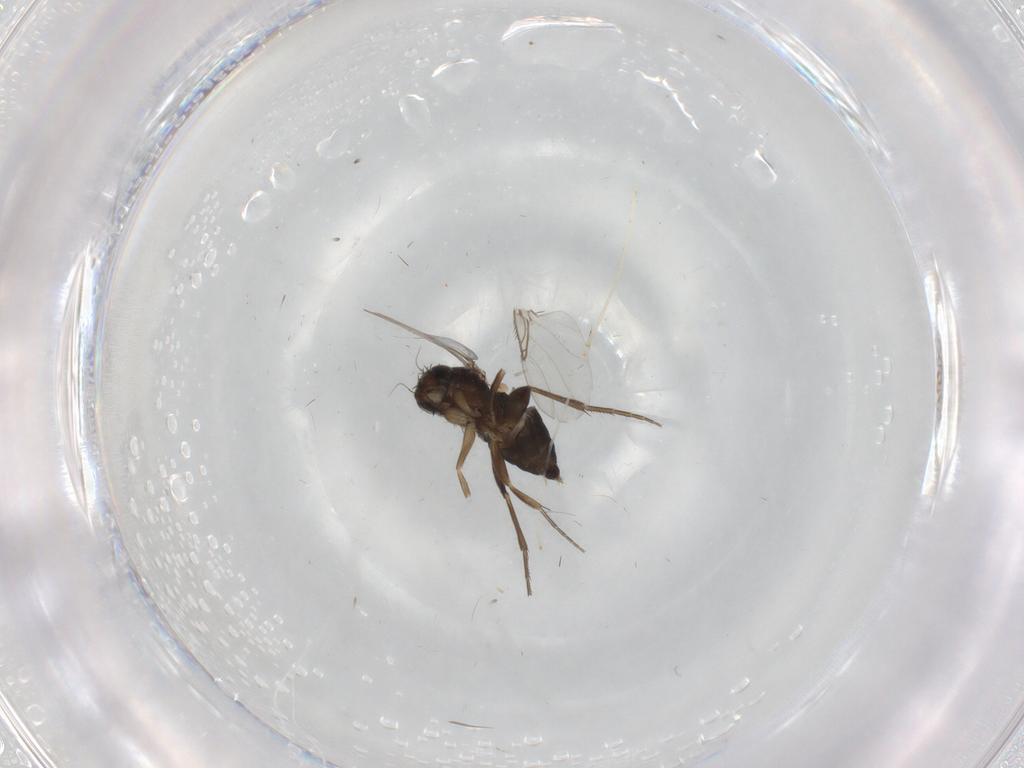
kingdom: Animalia
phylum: Arthropoda
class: Insecta
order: Diptera
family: Phoridae
